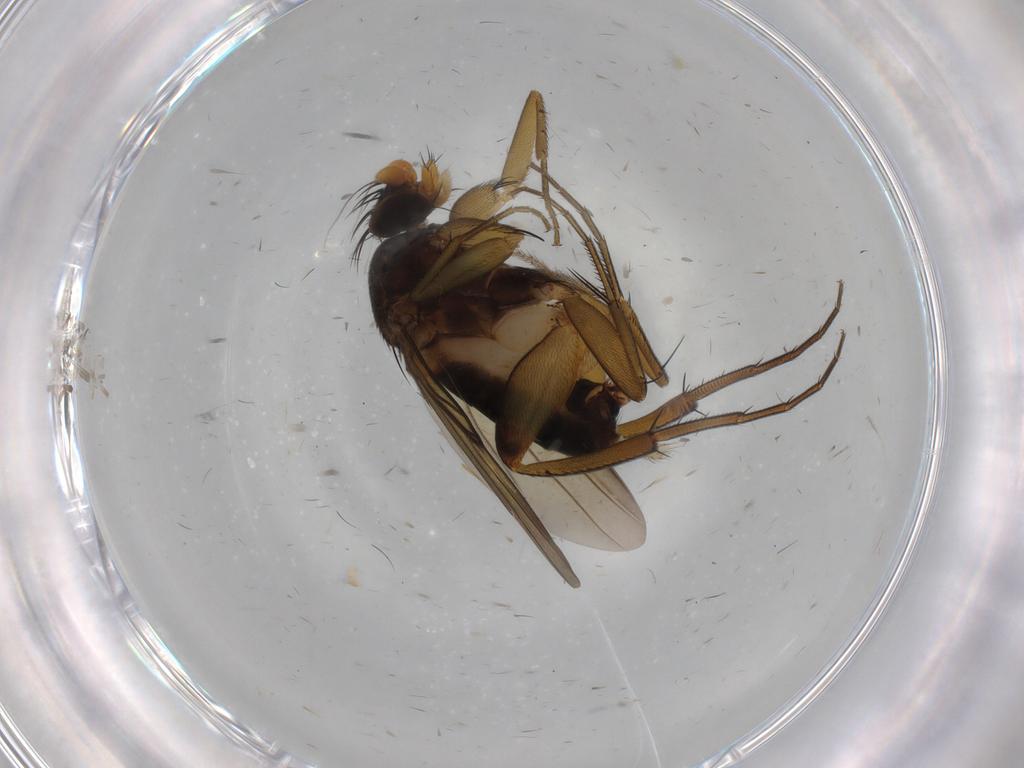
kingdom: Animalia
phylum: Arthropoda
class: Insecta
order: Diptera
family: Phoridae
